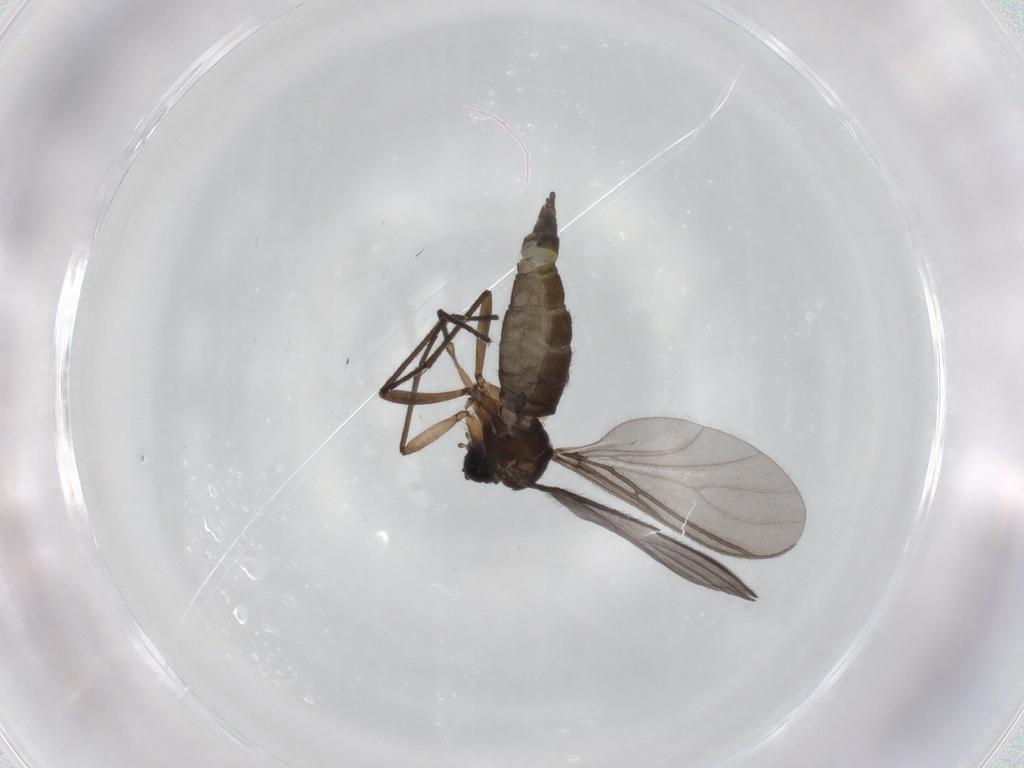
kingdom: Animalia
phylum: Arthropoda
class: Insecta
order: Diptera
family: Sciaridae
